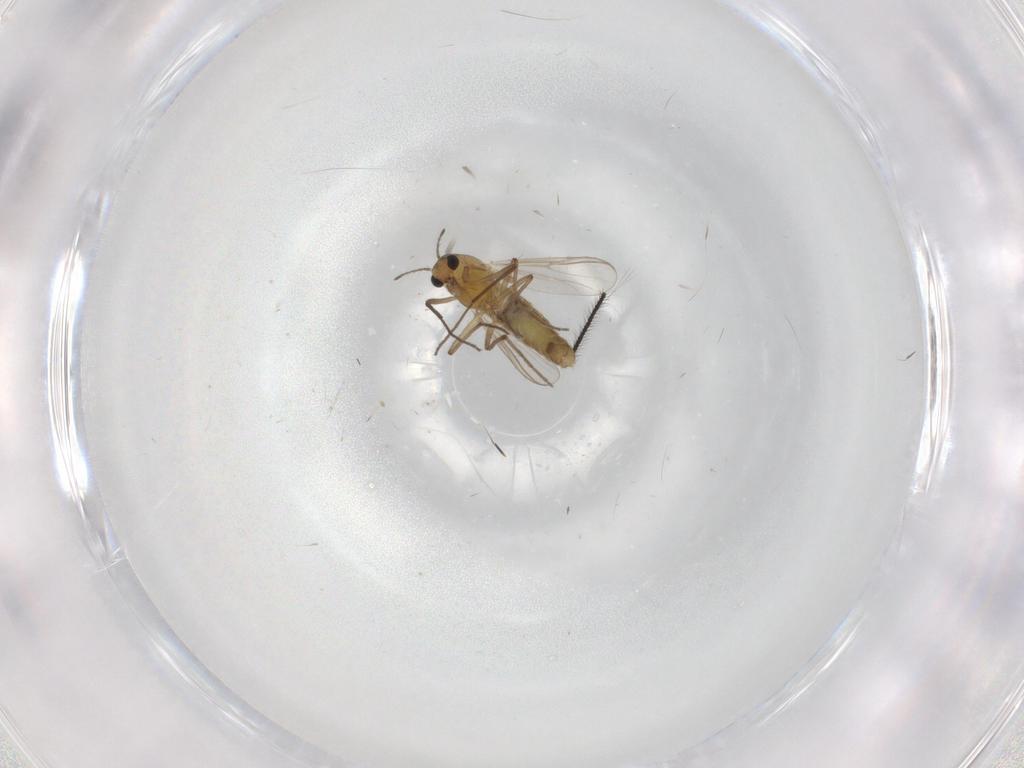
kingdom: Animalia
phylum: Arthropoda
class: Insecta
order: Diptera
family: Chironomidae
